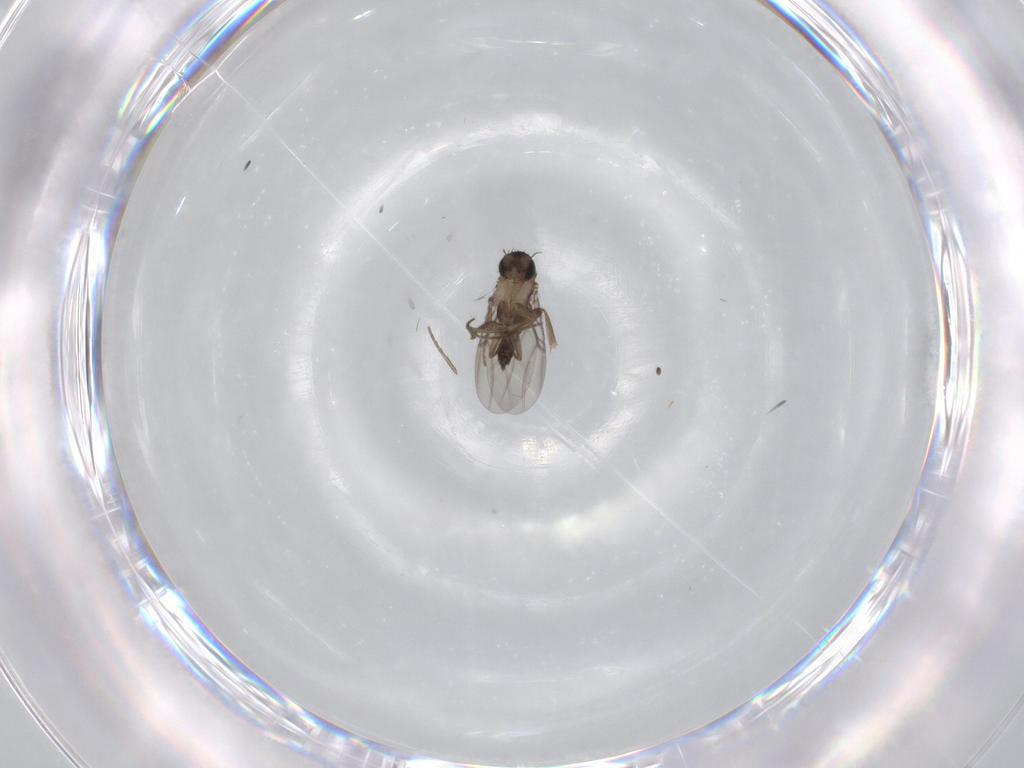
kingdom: Animalia
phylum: Arthropoda
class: Insecta
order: Diptera
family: Phoridae
